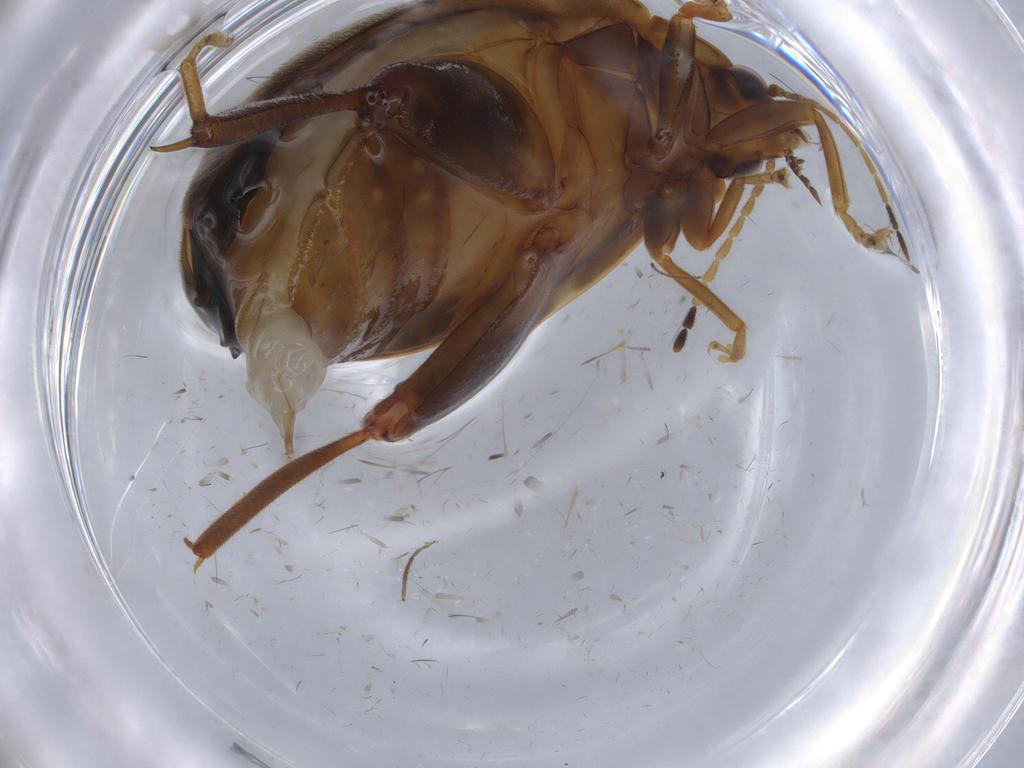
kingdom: Animalia
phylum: Arthropoda
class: Insecta
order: Coleoptera
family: Scirtidae
